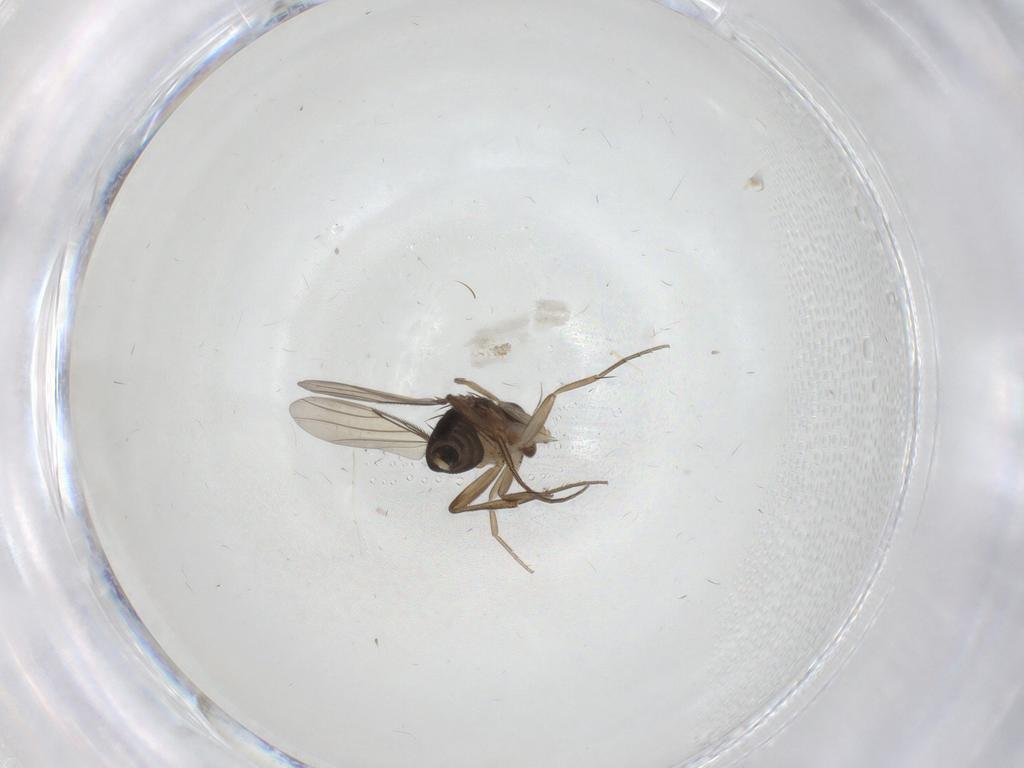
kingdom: Animalia
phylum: Arthropoda
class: Insecta
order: Diptera
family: Phoridae
